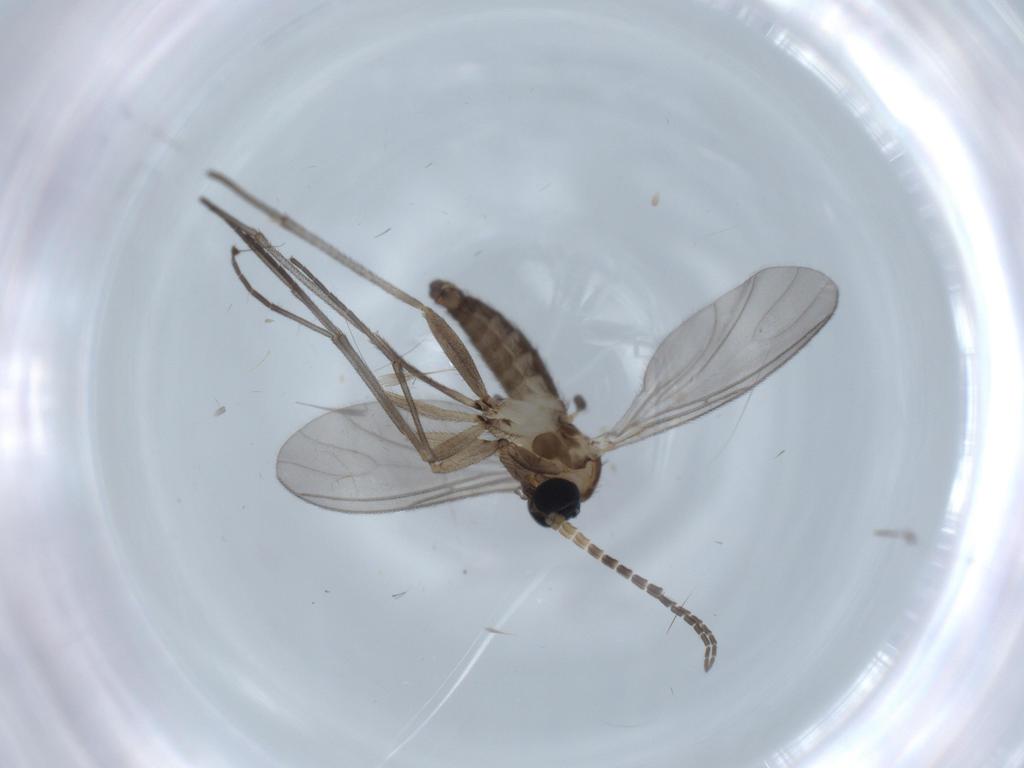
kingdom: Animalia
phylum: Arthropoda
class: Insecta
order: Diptera
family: Sciaridae
